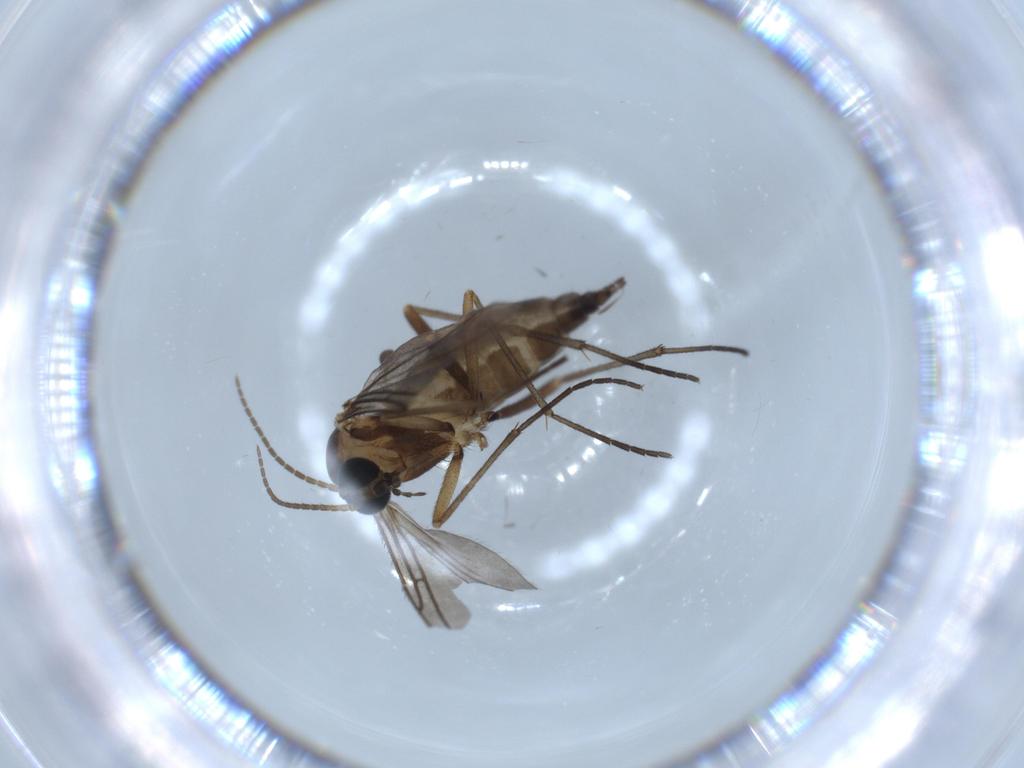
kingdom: Animalia
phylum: Arthropoda
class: Insecta
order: Diptera
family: Sciaridae
